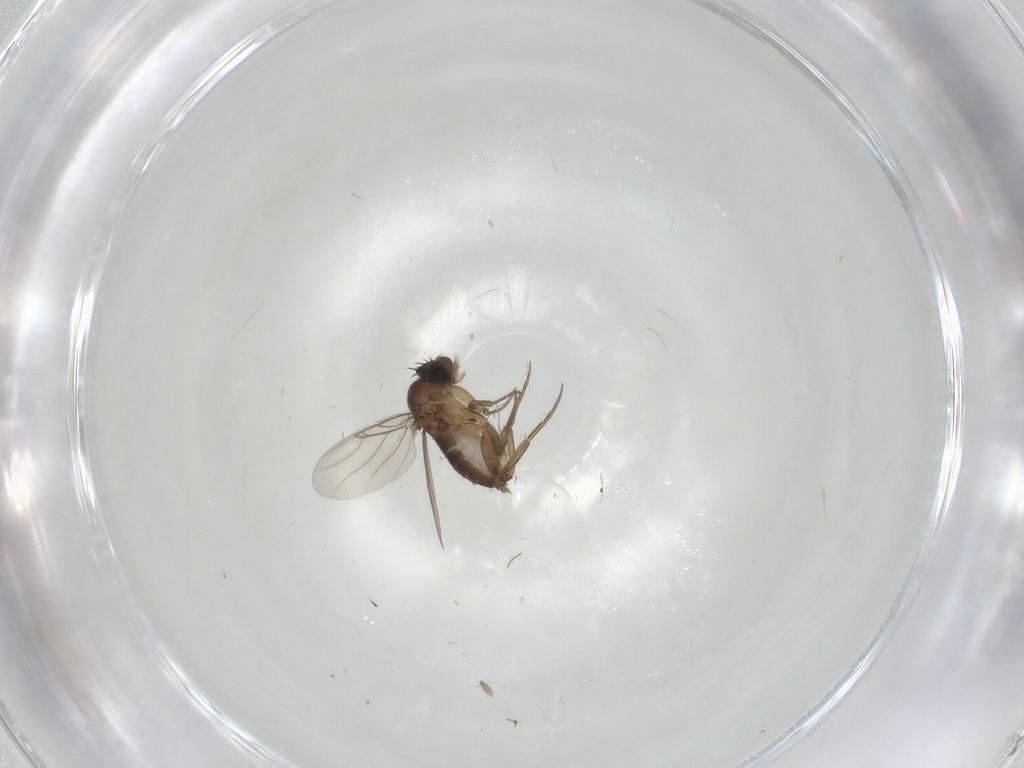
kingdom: Animalia
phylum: Arthropoda
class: Insecta
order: Diptera
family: Phoridae
